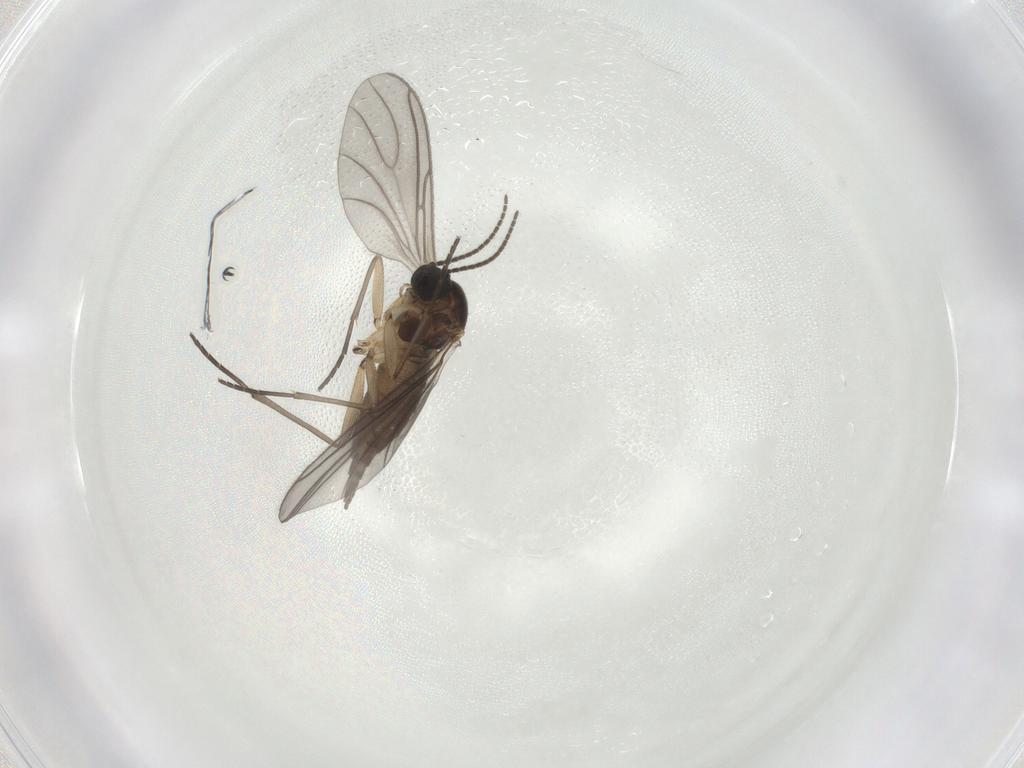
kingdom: Animalia
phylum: Arthropoda
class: Insecta
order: Diptera
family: Sciaridae
